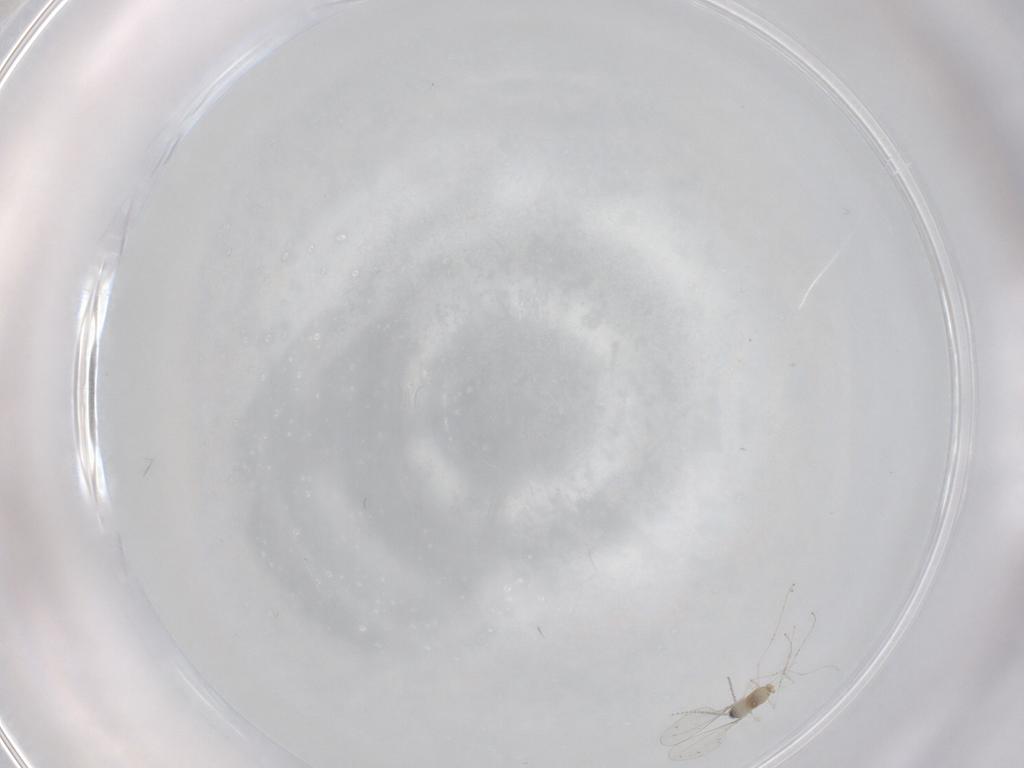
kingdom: Animalia
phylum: Arthropoda
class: Insecta
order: Diptera
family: Cecidomyiidae
